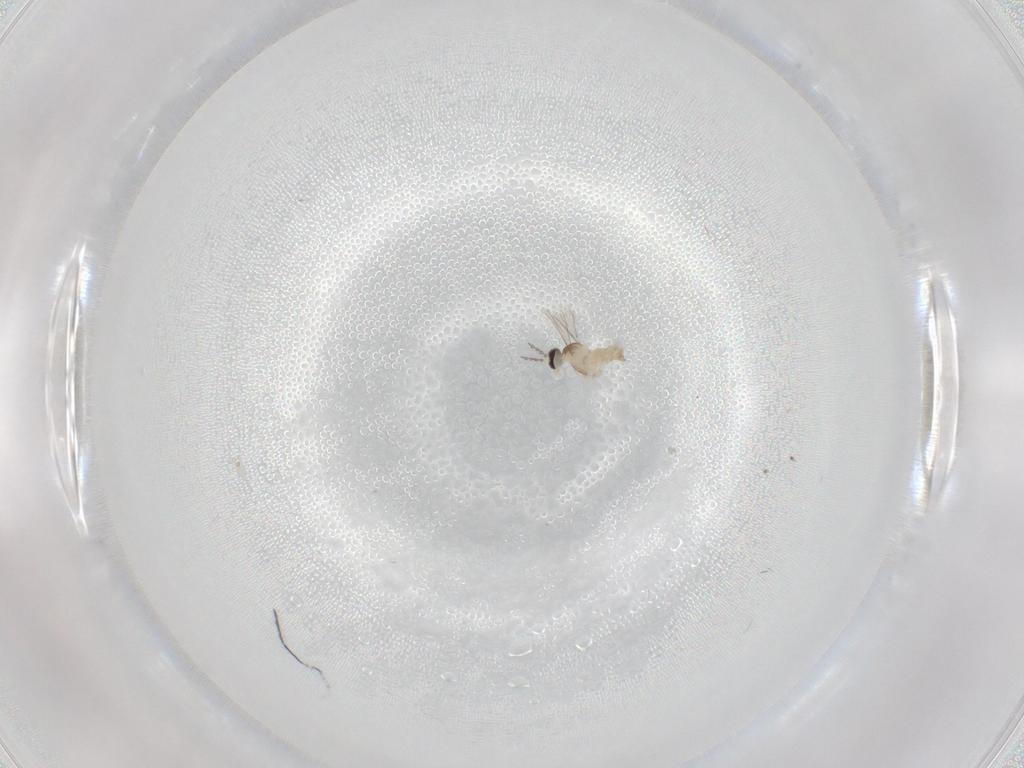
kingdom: Animalia
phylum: Arthropoda
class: Insecta
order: Diptera
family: Cecidomyiidae
